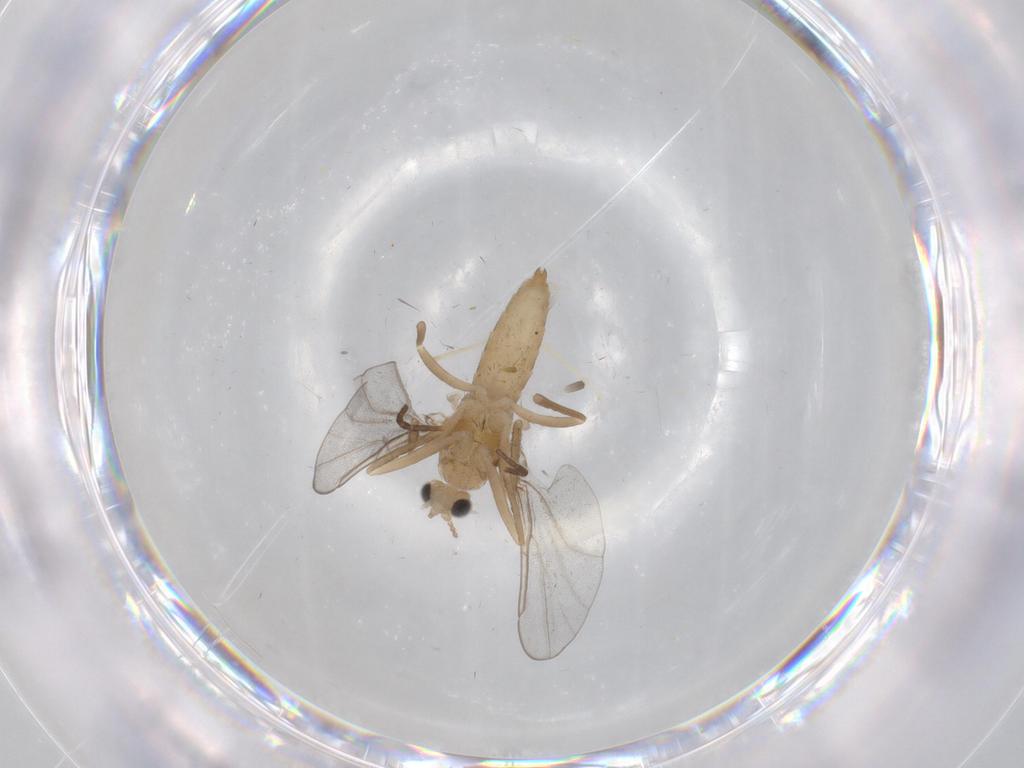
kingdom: Animalia
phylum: Arthropoda
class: Insecta
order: Diptera
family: Cecidomyiidae
